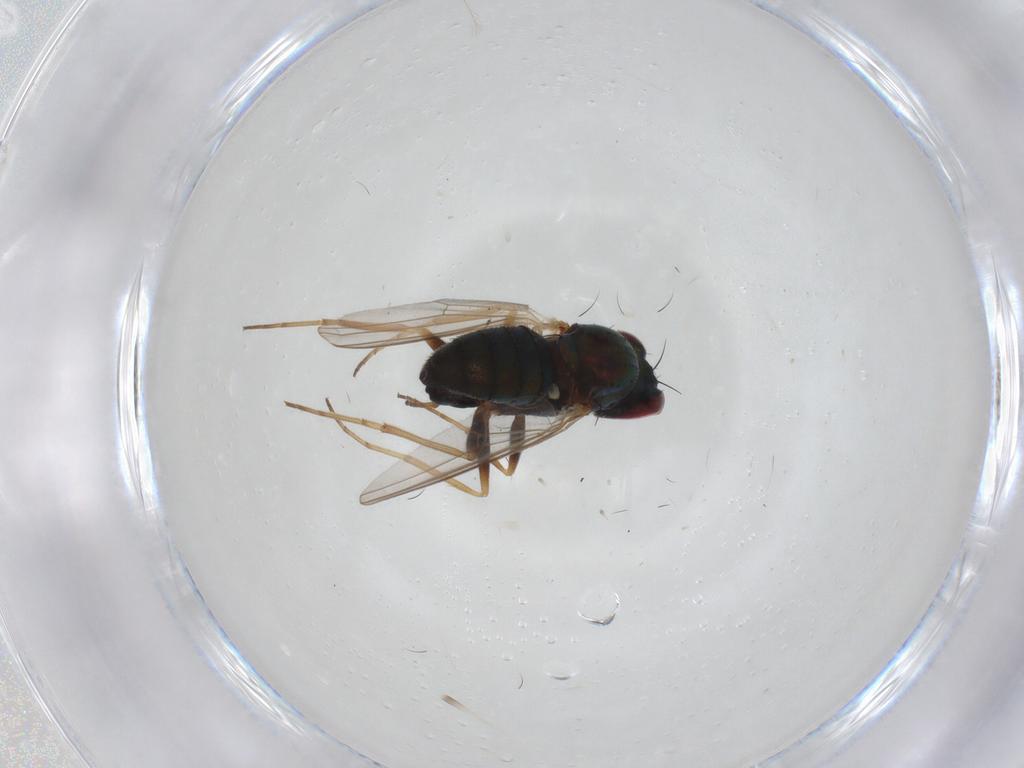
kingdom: Animalia
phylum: Arthropoda
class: Insecta
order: Diptera
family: Dolichopodidae
